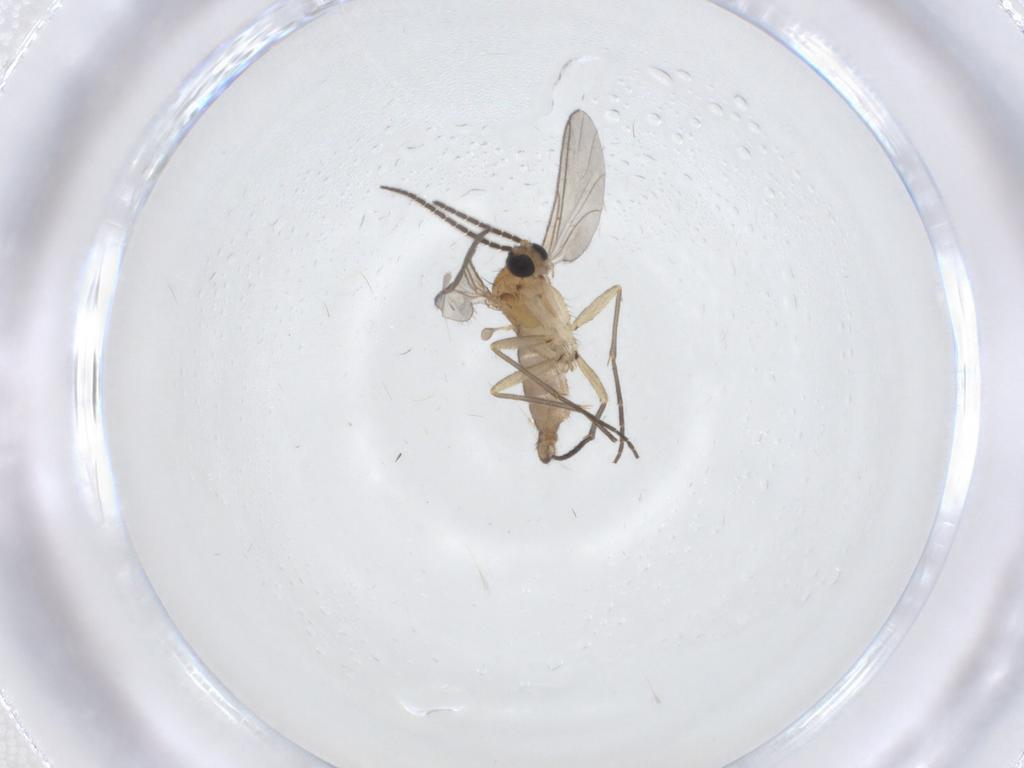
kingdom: Animalia
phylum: Arthropoda
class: Insecta
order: Diptera
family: Sciaridae
